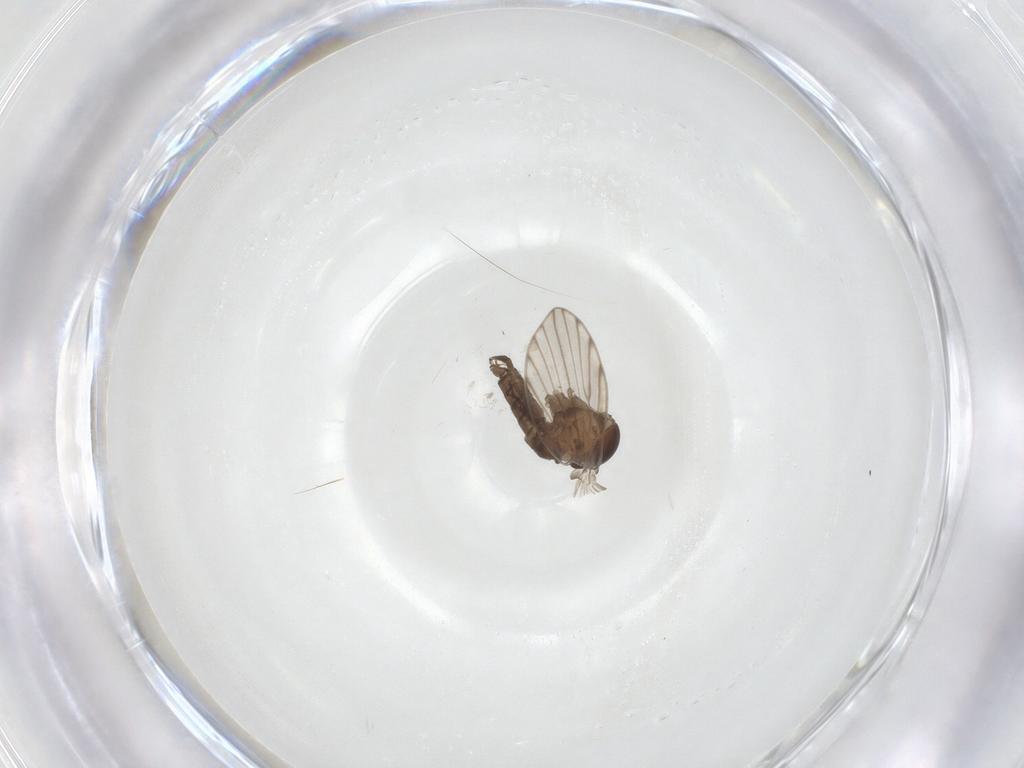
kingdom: Animalia
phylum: Arthropoda
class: Insecta
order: Diptera
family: Psychodidae
